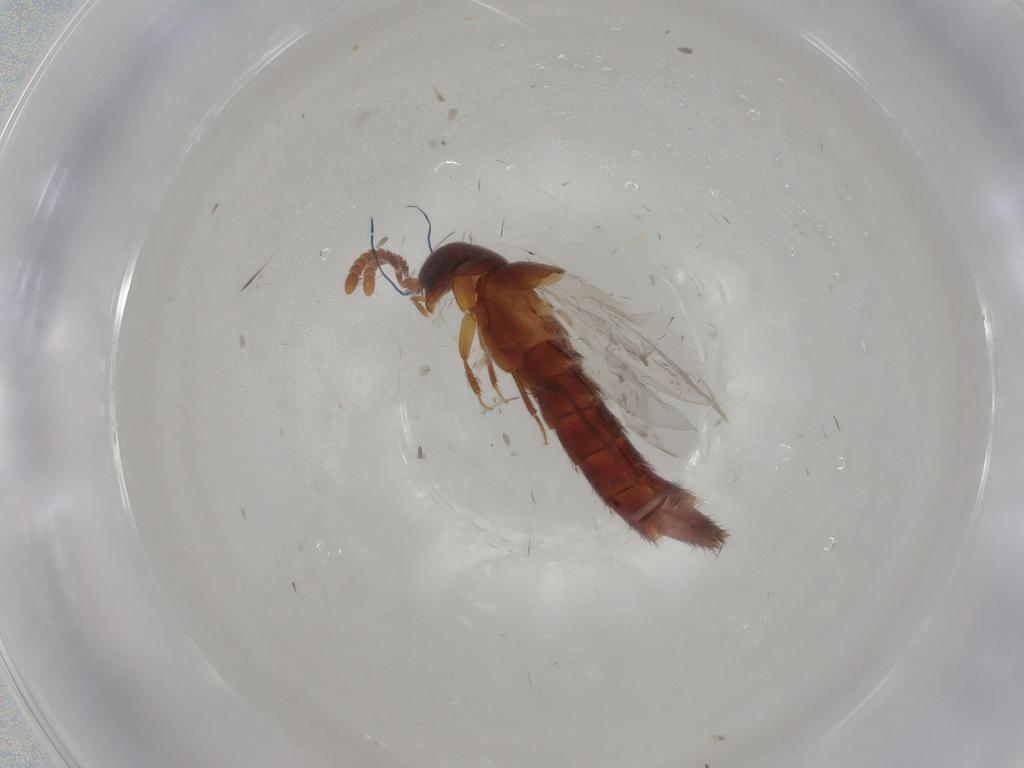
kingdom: Animalia
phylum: Arthropoda
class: Insecta
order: Coleoptera
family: Staphylinidae
